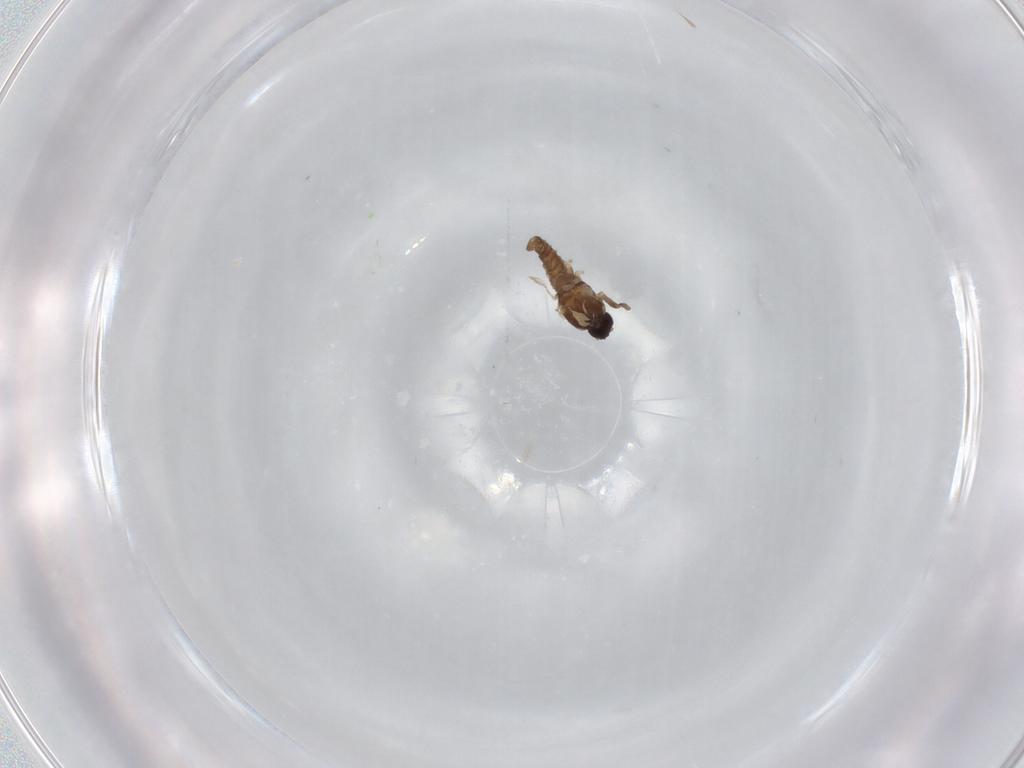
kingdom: Animalia
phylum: Arthropoda
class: Insecta
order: Diptera
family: Cecidomyiidae
